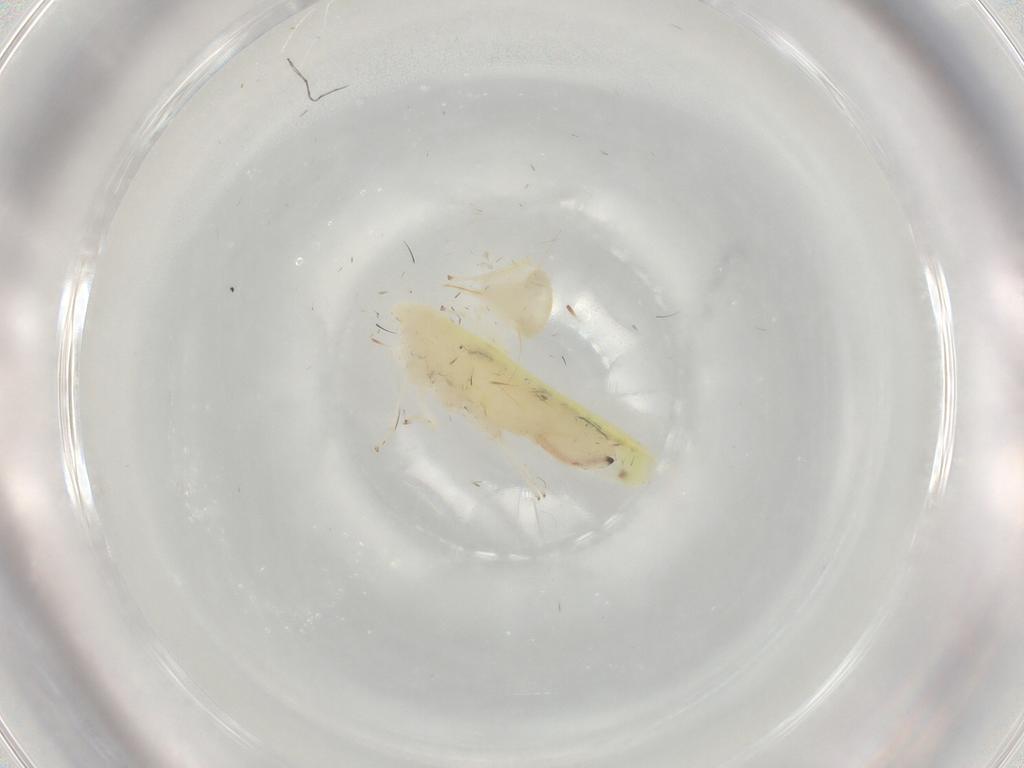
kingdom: Animalia
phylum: Arthropoda
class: Insecta
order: Hemiptera
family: Cicadellidae
